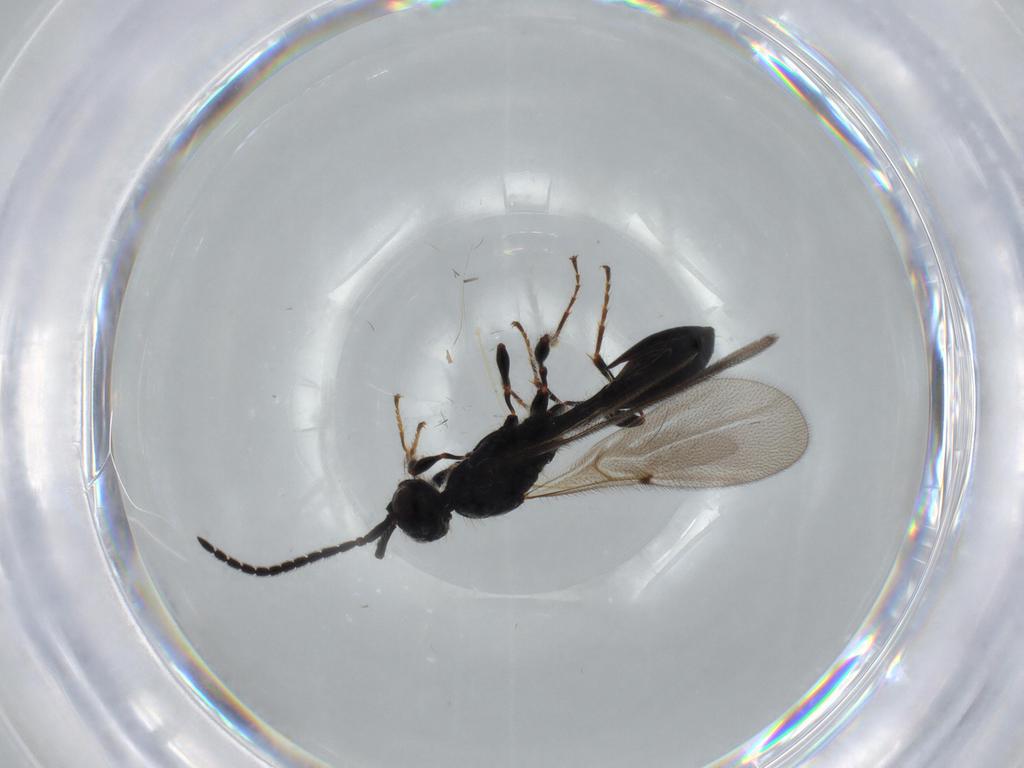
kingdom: Animalia
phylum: Arthropoda
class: Insecta
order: Hymenoptera
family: Diapriidae
